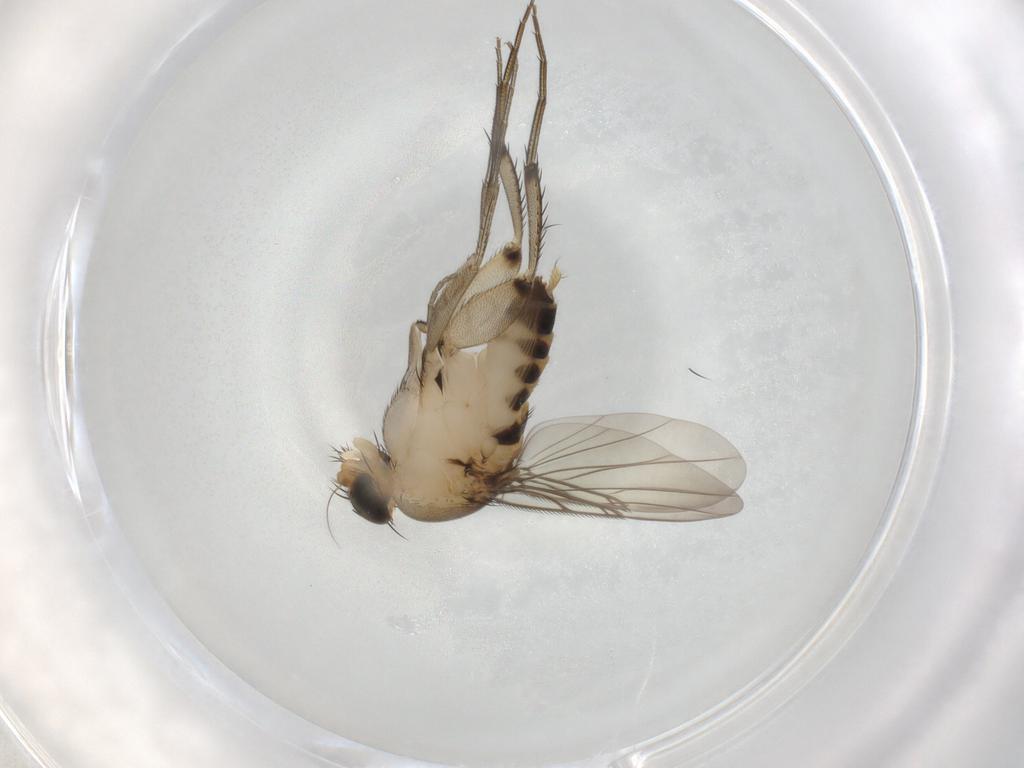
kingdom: Animalia
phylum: Arthropoda
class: Insecta
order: Diptera
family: Phoridae
